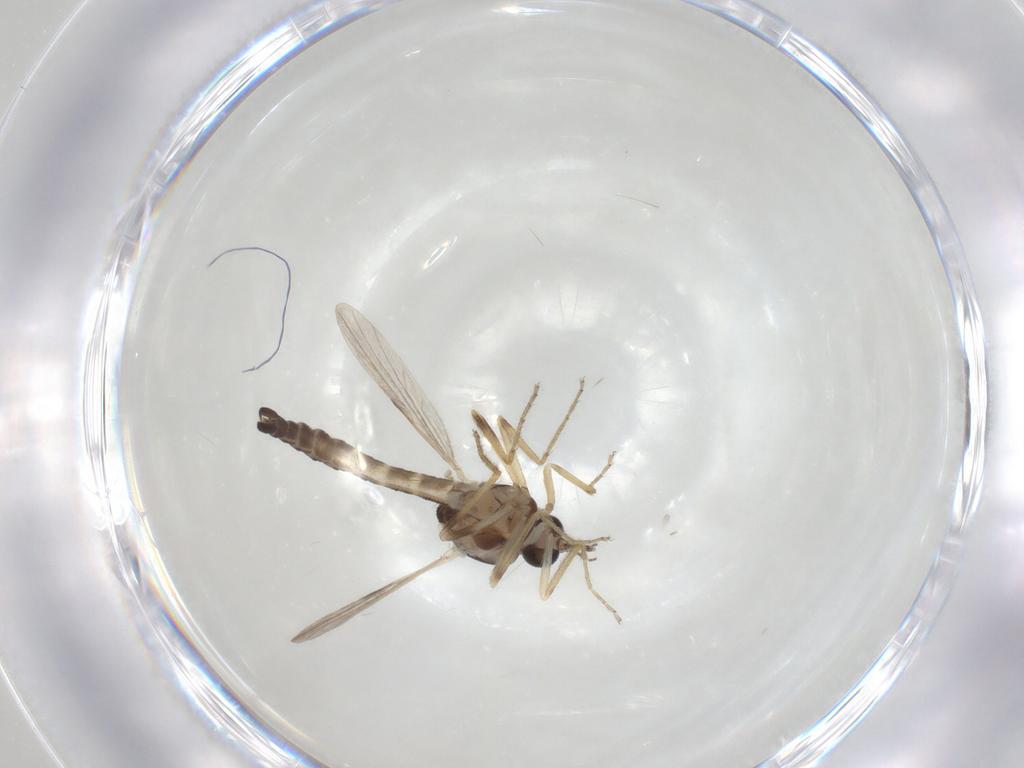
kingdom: Animalia
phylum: Arthropoda
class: Insecta
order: Diptera
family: Ceratopogonidae
